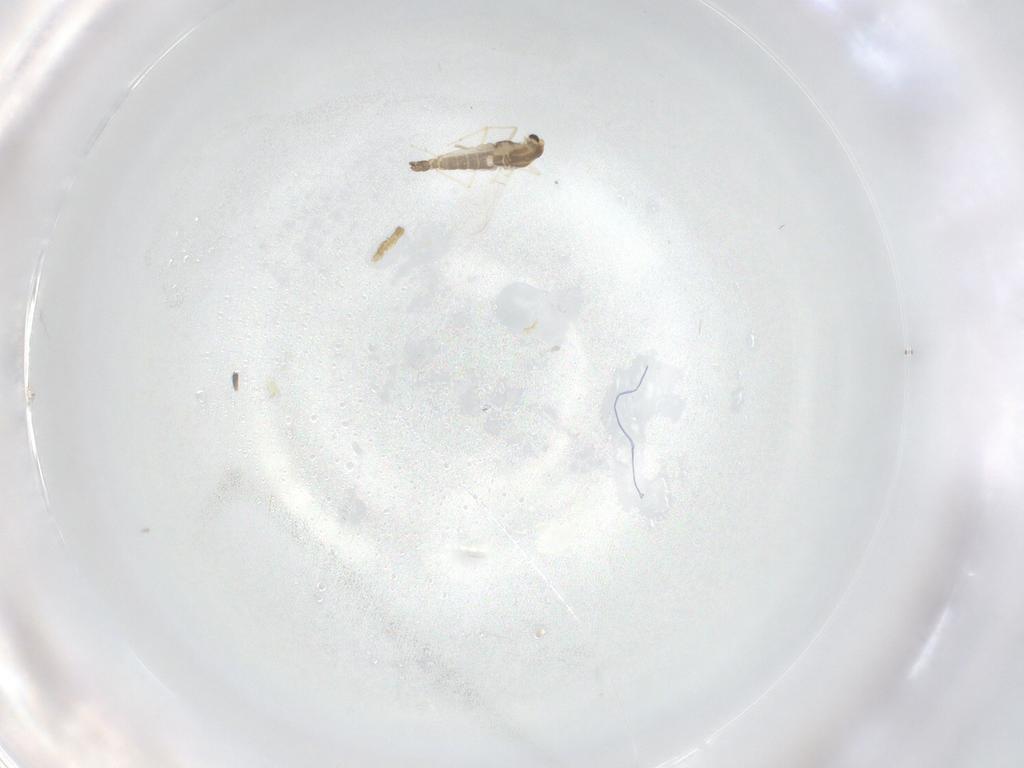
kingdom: Animalia
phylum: Arthropoda
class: Insecta
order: Diptera
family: Chironomidae
